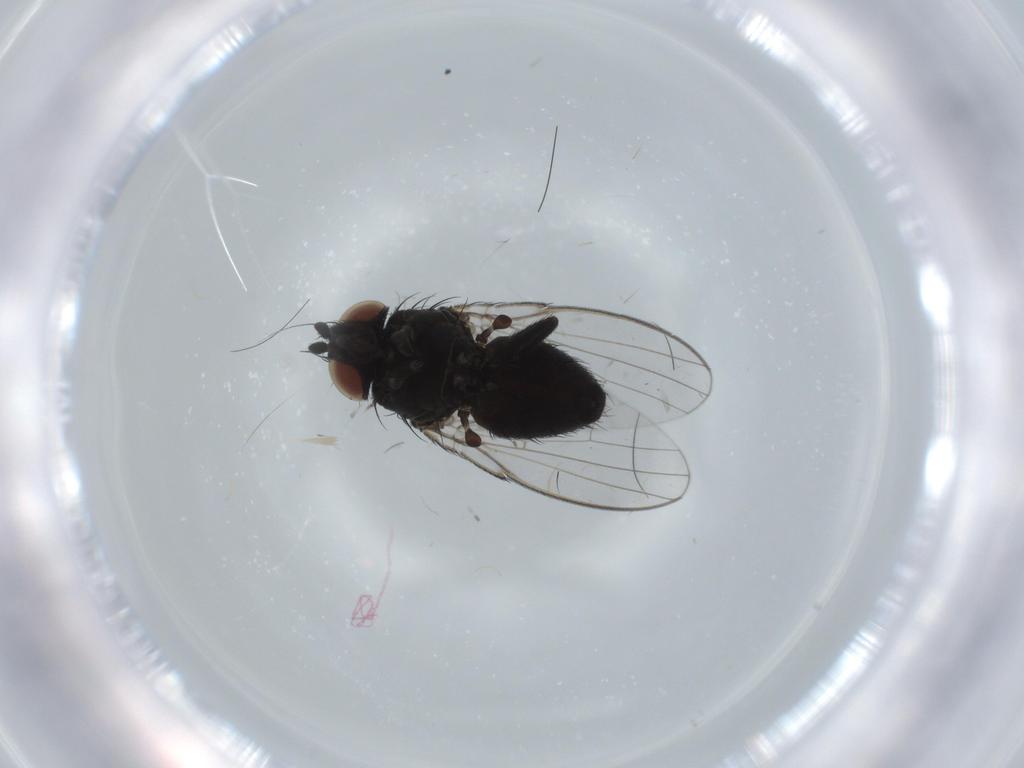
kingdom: Animalia
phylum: Arthropoda
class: Insecta
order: Diptera
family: Milichiidae
